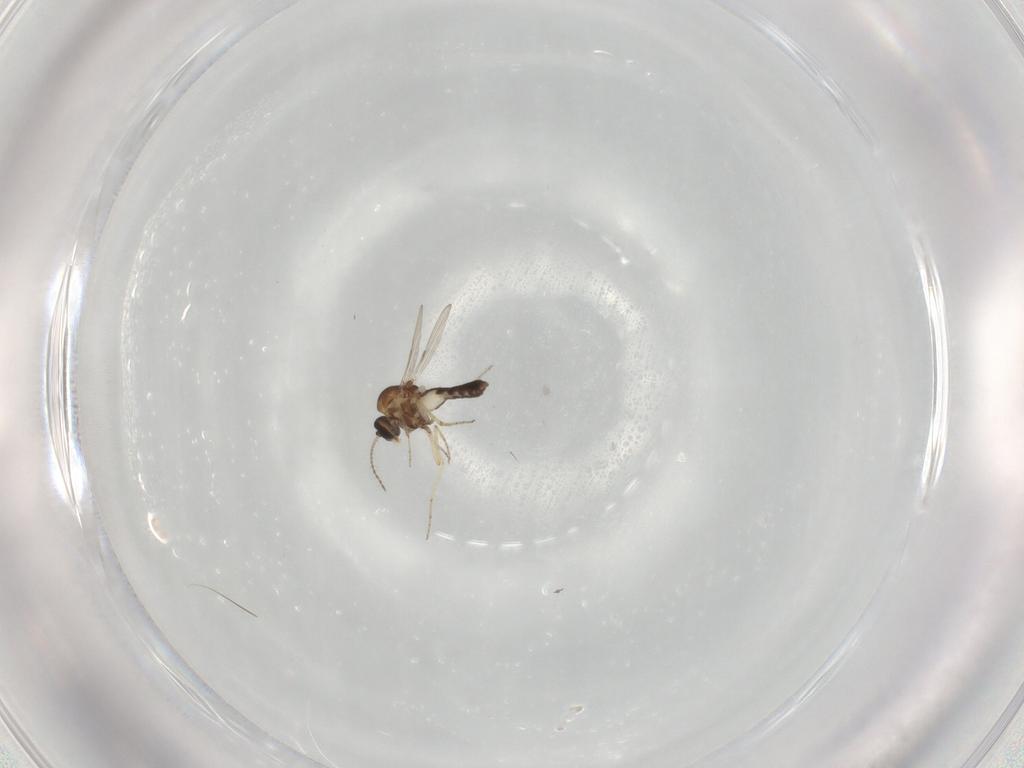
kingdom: Animalia
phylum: Arthropoda
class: Insecta
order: Diptera
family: Ceratopogonidae
